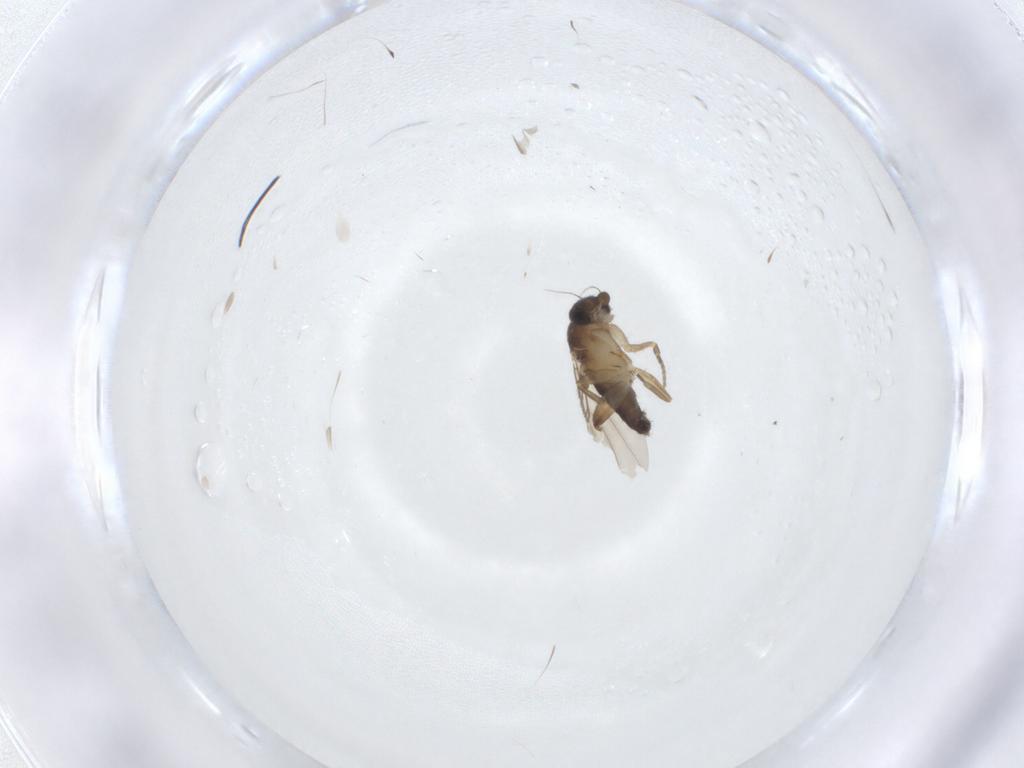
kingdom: Animalia
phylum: Arthropoda
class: Insecta
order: Diptera
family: Phoridae
